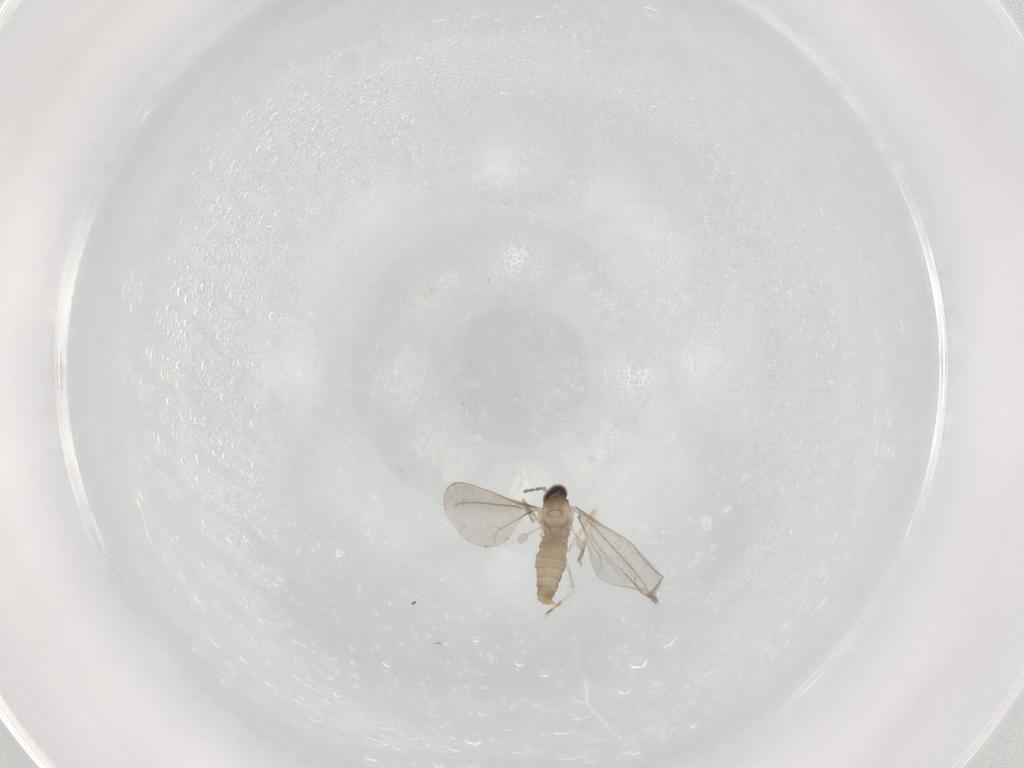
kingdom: Animalia
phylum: Arthropoda
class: Insecta
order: Diptera
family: Cecidomyiidae
